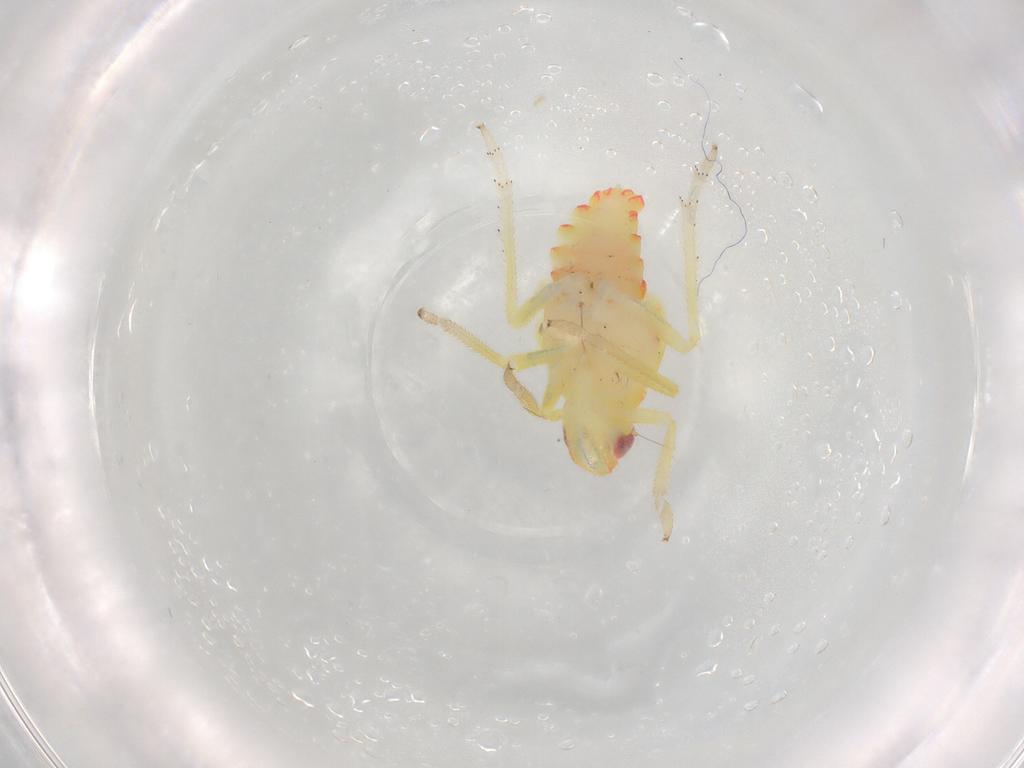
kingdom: Animalia
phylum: Arthropoda
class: Insecta
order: Hemiptera
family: Tropiduchidae
